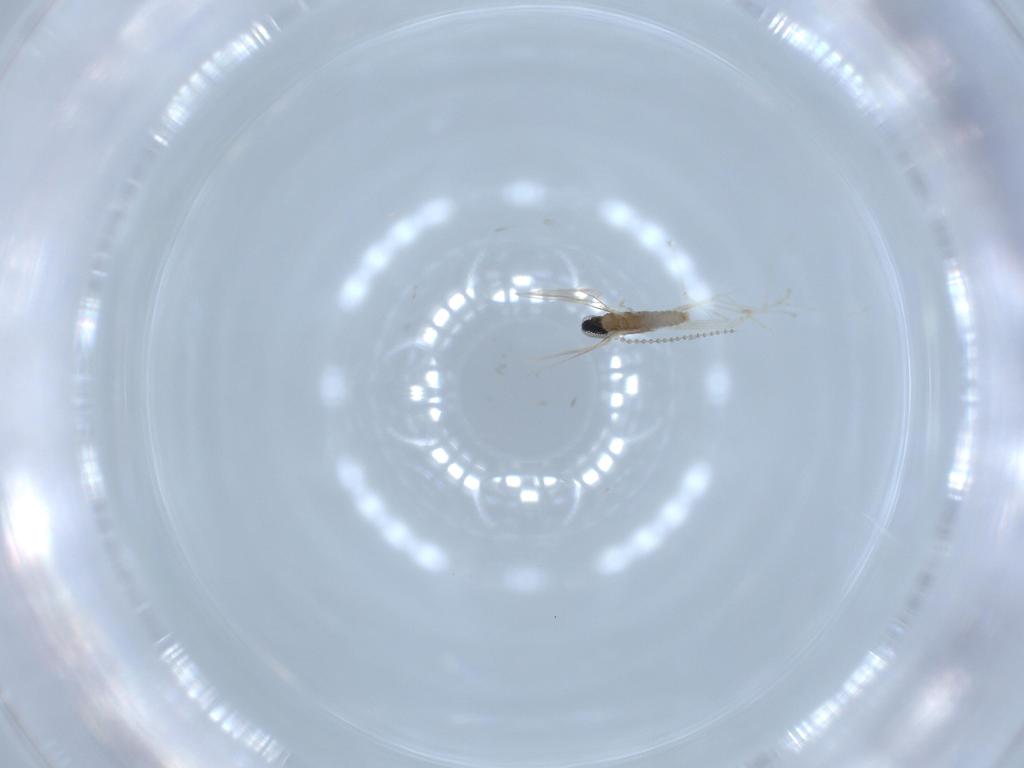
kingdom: Animalia
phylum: Arthropoda
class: Insecta
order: Diptera
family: Cecidomyiidae
